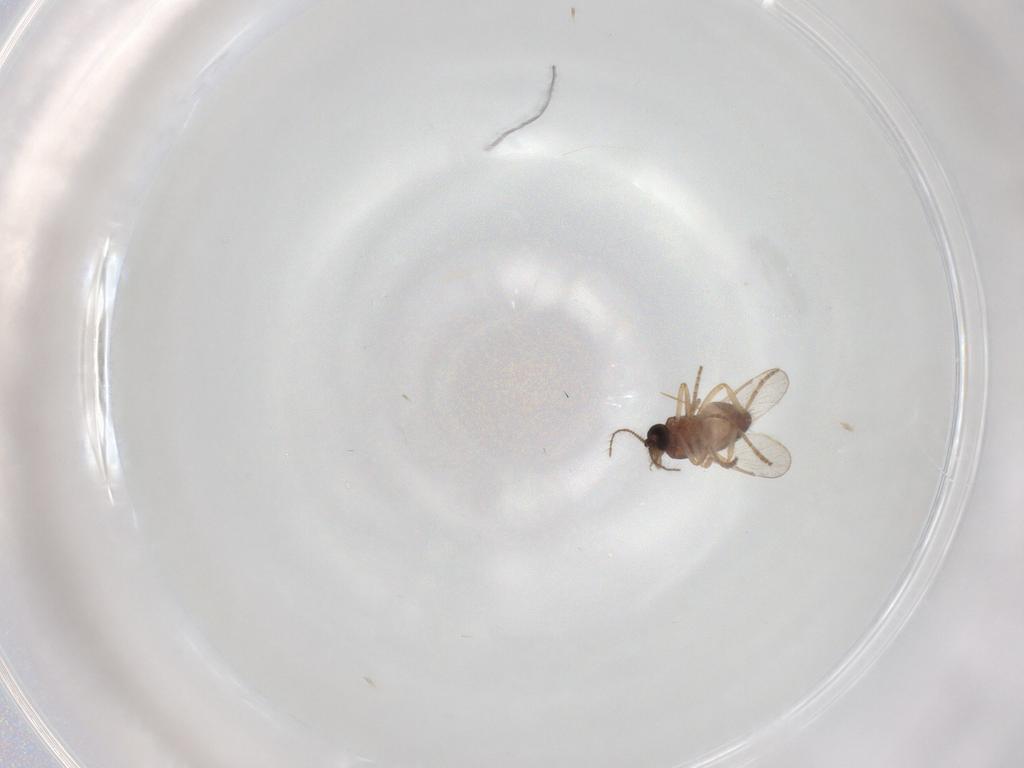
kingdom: Animalia
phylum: Arthropoda
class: Insecta
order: Diptera
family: Ceratopogonidae
